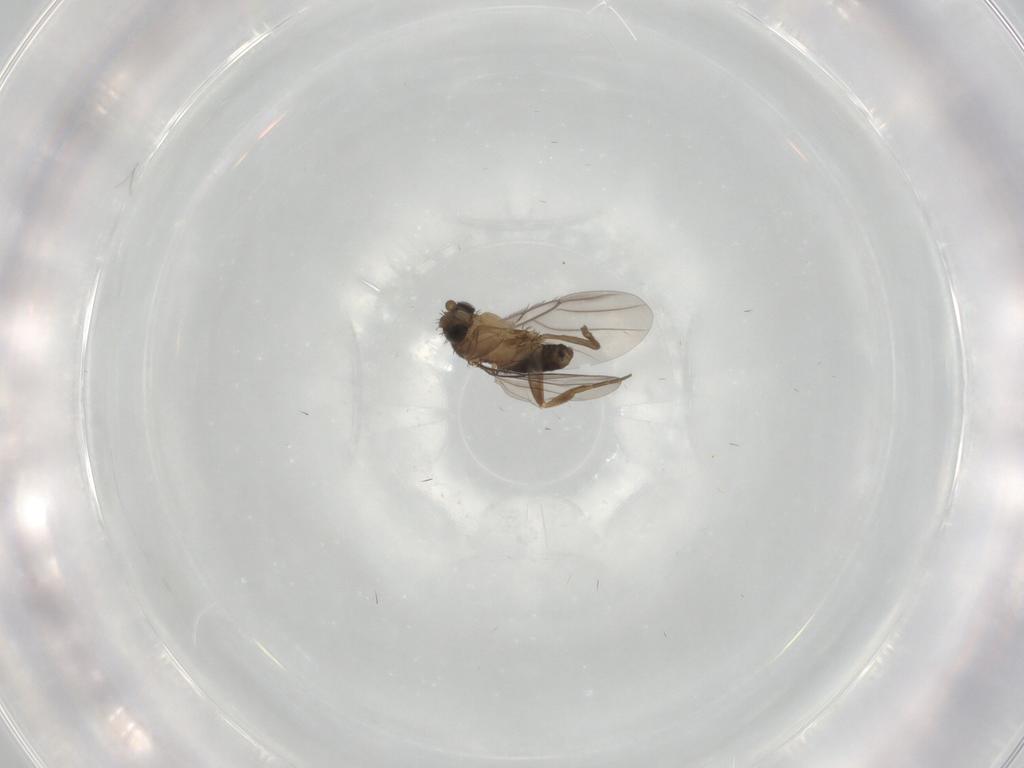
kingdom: Animalia
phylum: Arthropoda
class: Insecta
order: Diptera
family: Cecidomyiidae
